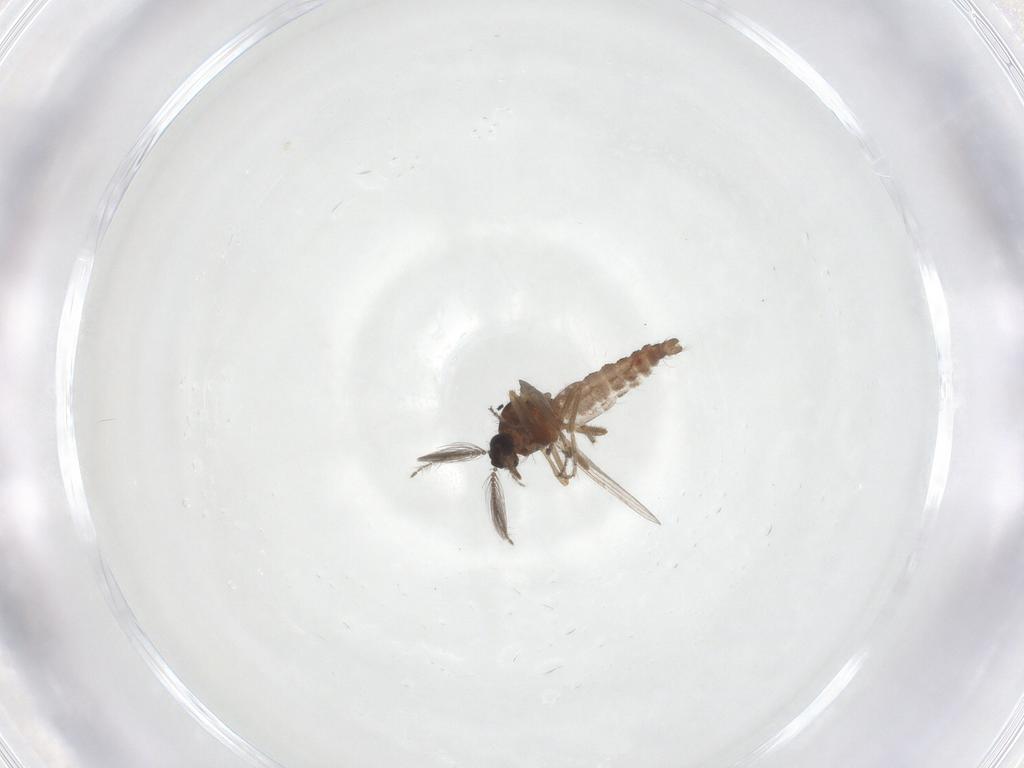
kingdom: Animalia
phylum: Arthropoda
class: Insecta
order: Diptera
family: Ceratopogonidae
